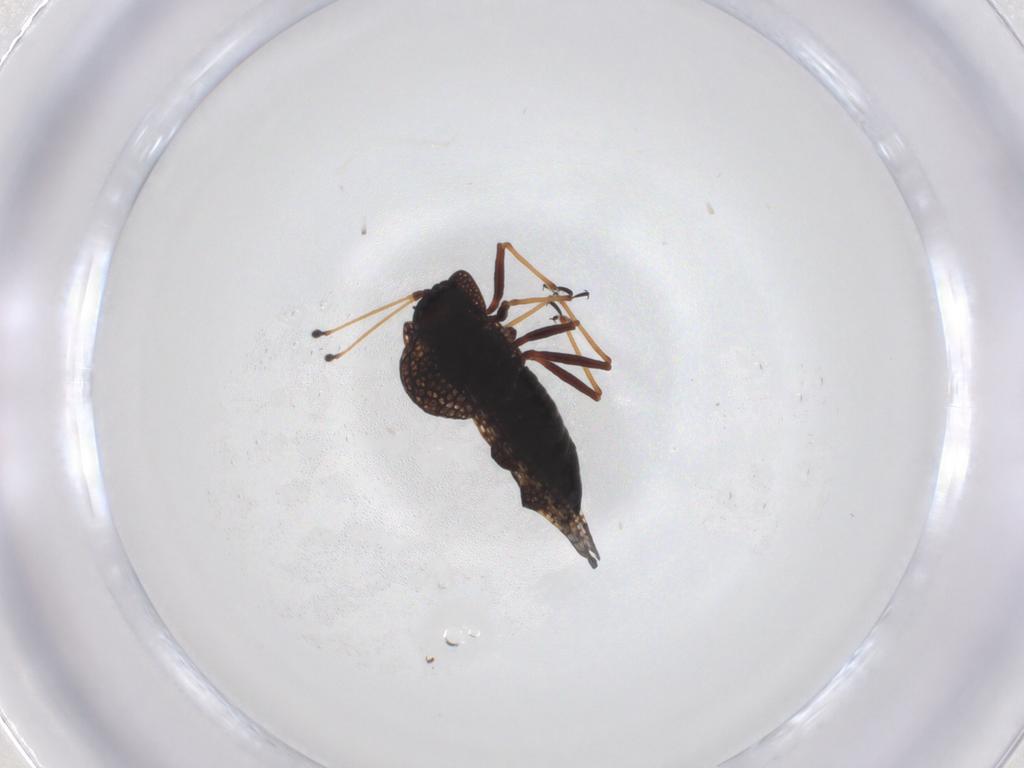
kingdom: Animalia
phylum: Arthropoda
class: Insecta
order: Hemiptera
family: Tingidae
